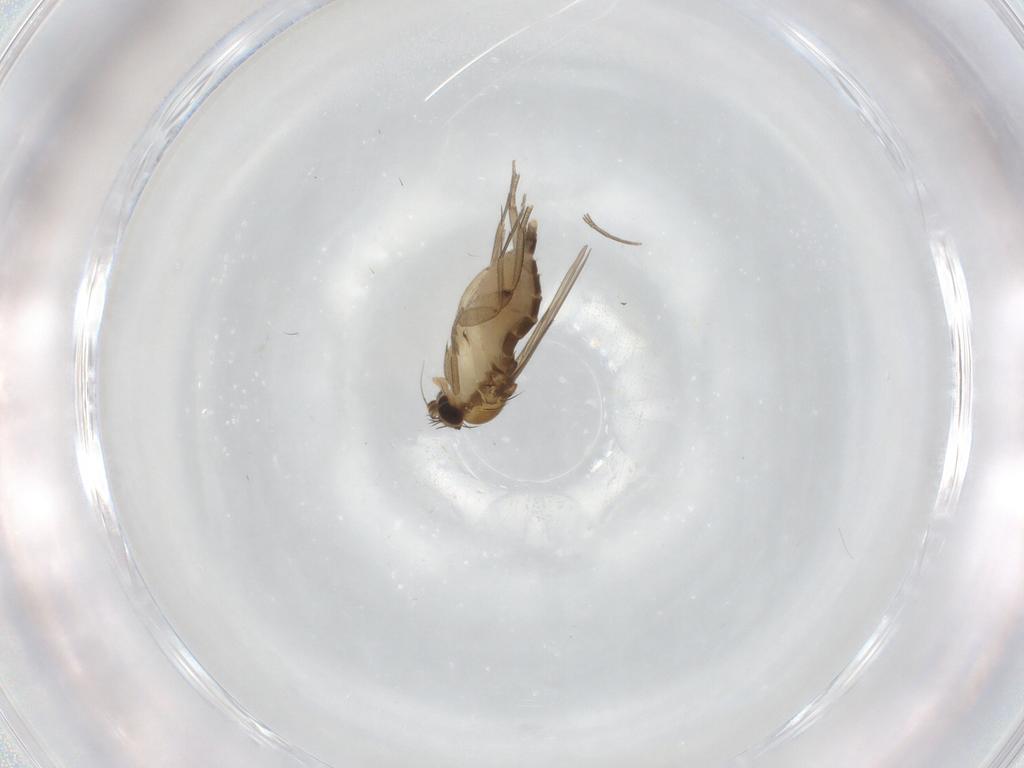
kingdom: Animalia
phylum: Arthropoda
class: Insecta
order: Diptera
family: Phoridae
